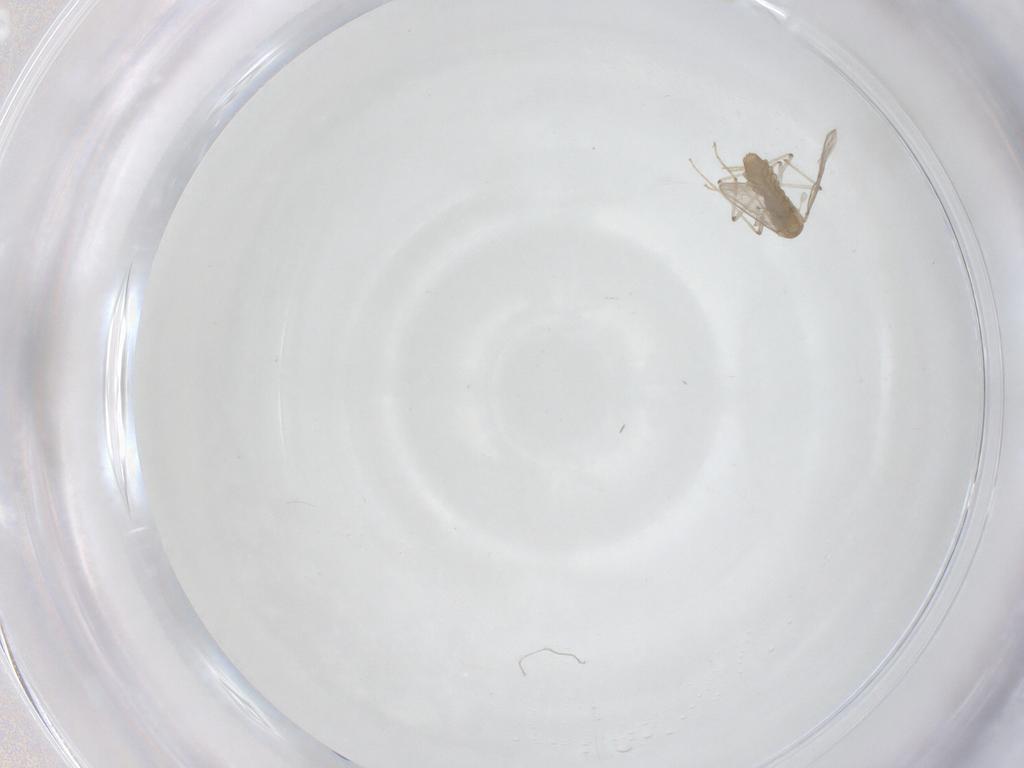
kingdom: Animalia
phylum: Arthropoda
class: Insecta
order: Diptera
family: Chironomidae
